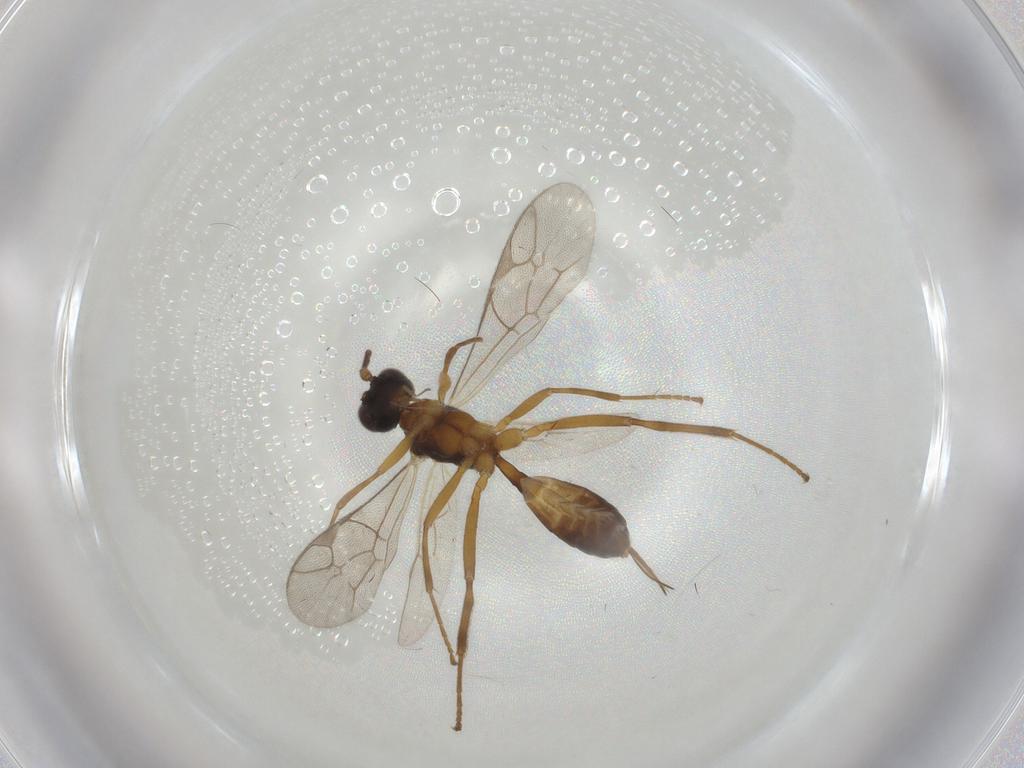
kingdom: Animalia
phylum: Arthropoda
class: Insecta
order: Hymenoptera
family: Ichneumonidae
